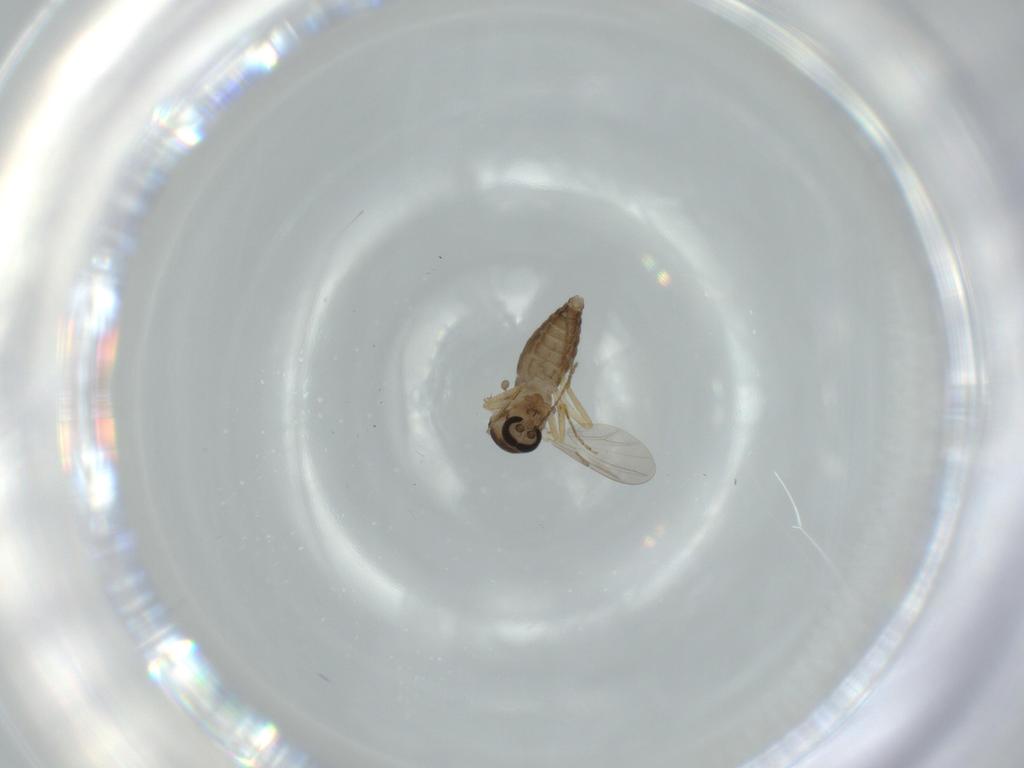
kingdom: Animalia
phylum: Arthropoda
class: Insecta
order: Diptera
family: Ceratopogonidae
